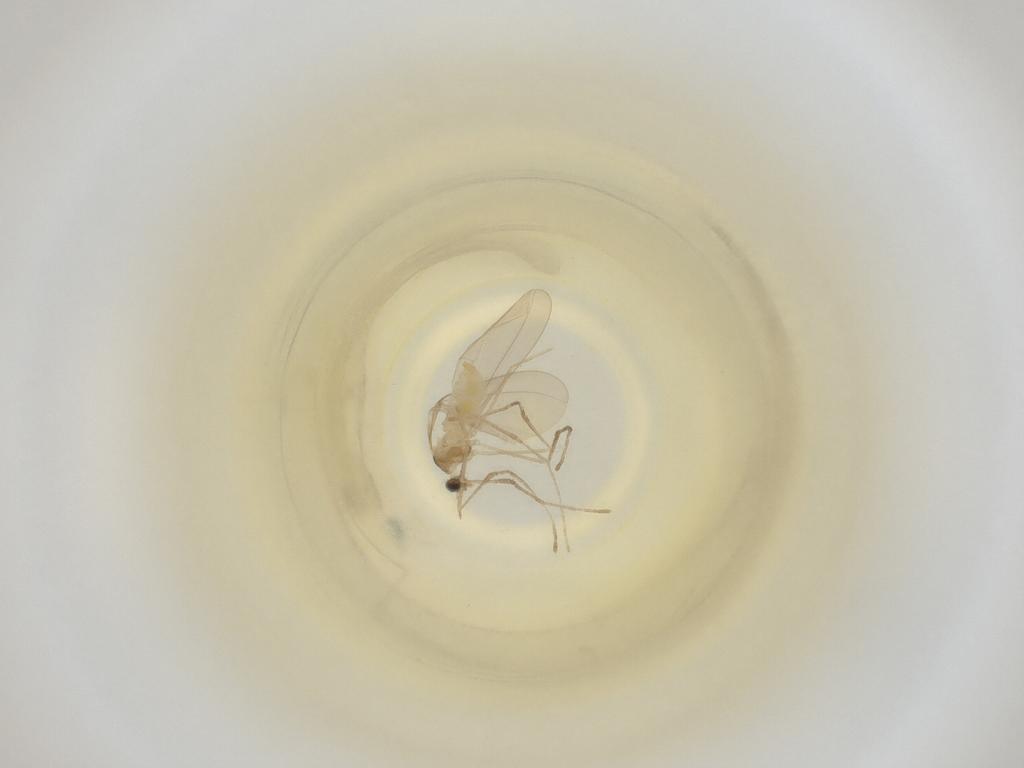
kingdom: Animalia
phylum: Arthropoda
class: Insecta
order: Diptera
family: Cecidomyiidae
